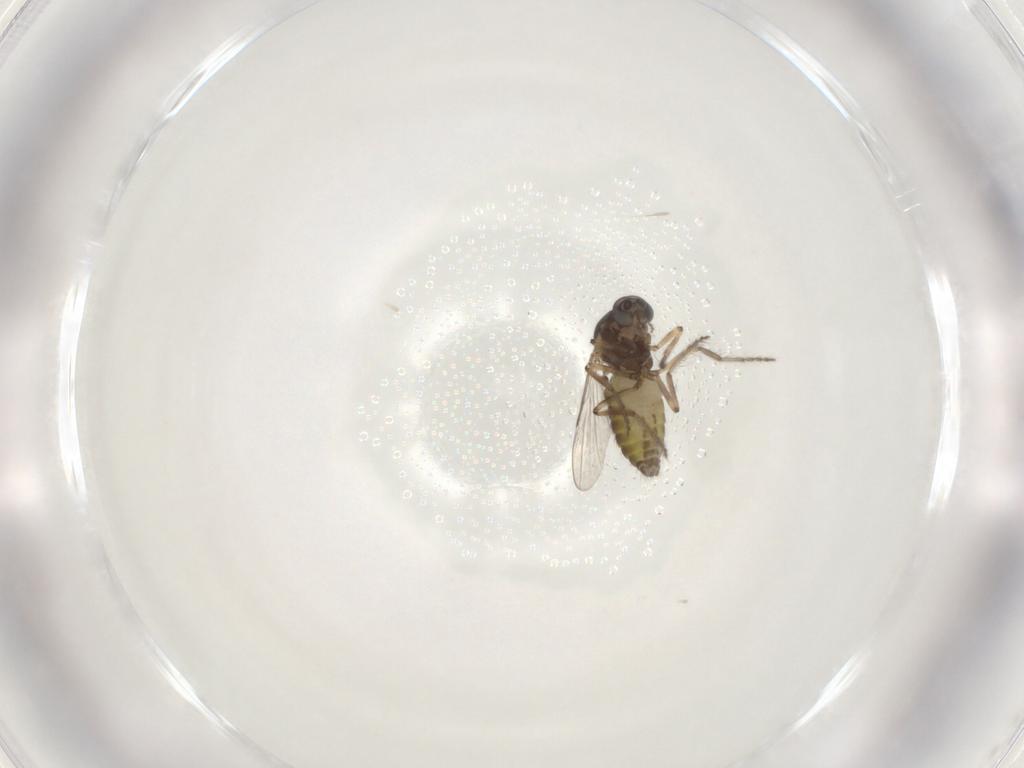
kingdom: Animalia
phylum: Arthropoda
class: Insecta
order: Diptera
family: Ceratopogonidae
